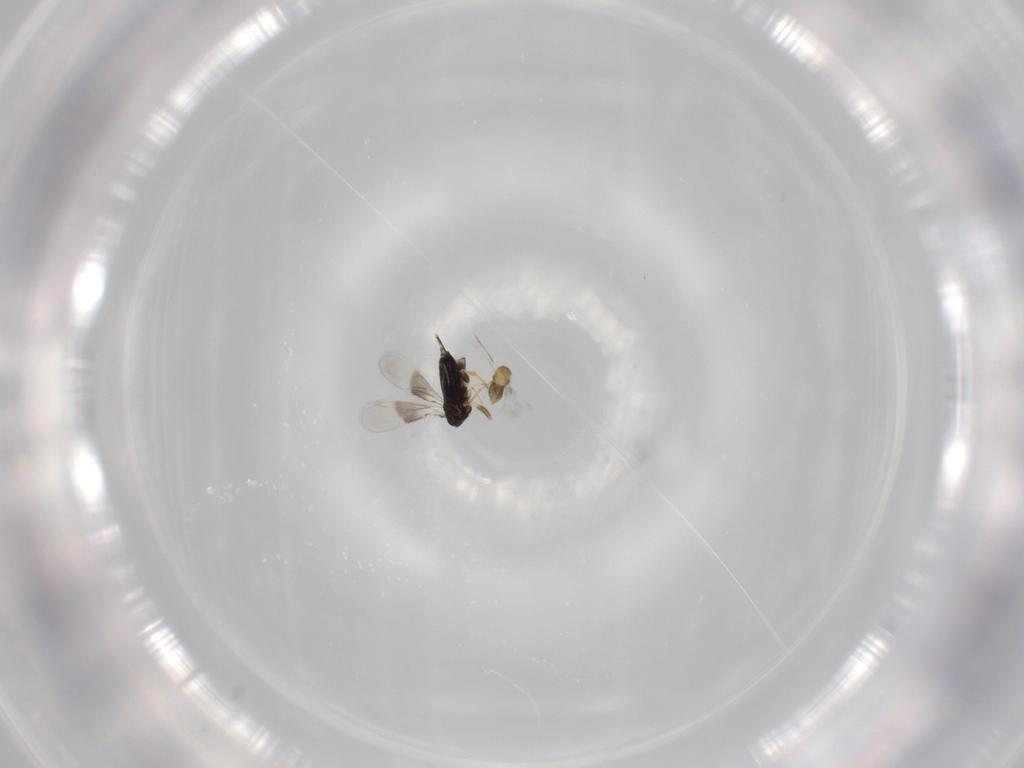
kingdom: Animalia
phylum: Arthropoda
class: Insecta
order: Hymenoptera
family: Azotidae
